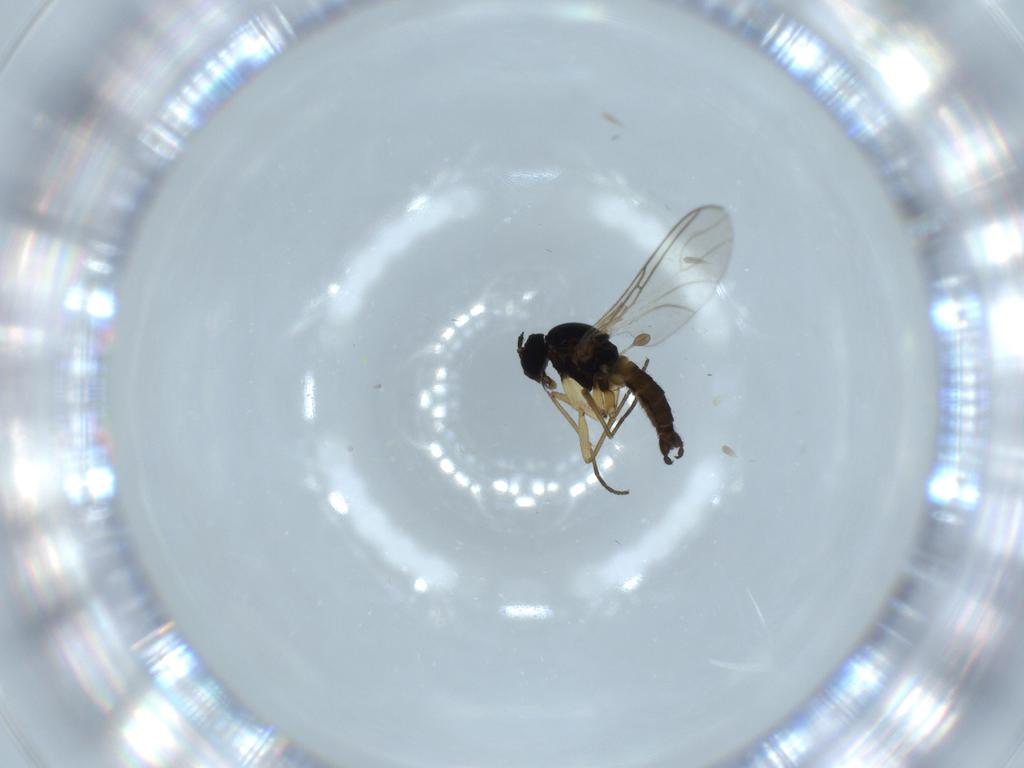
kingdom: Animalia
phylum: Arthropoda
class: Insecta
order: Diptera
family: Sciaridae
